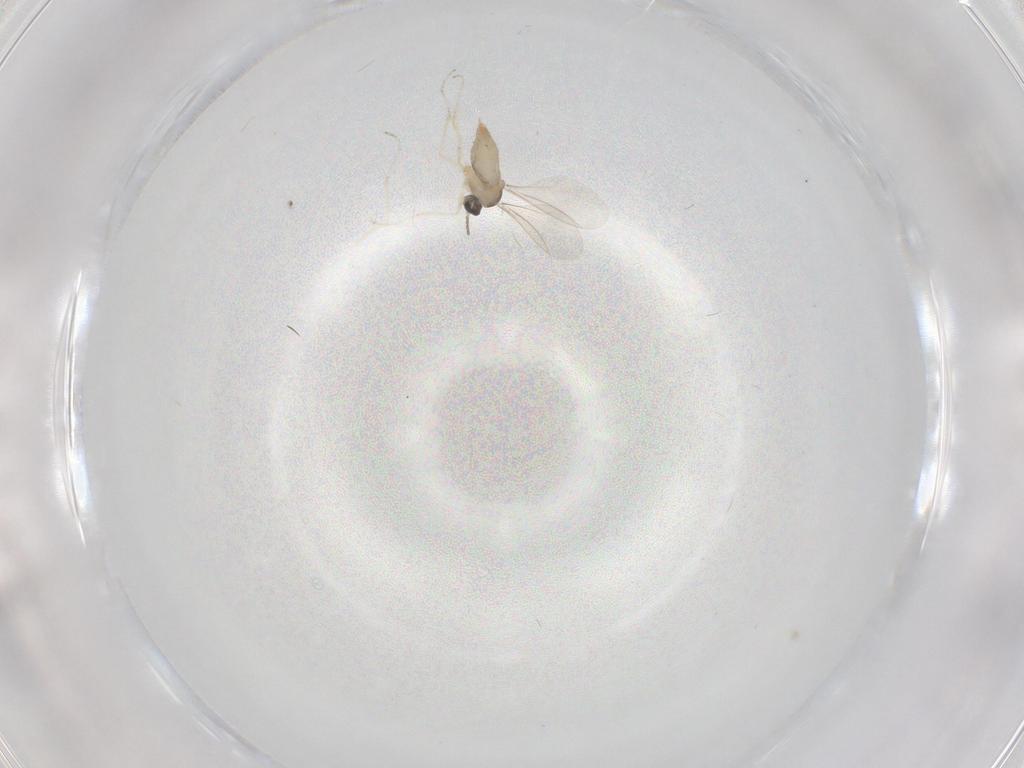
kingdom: Animalia
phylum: Arthropoda
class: Insecta
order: Diptera
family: Cecidomyiidae
